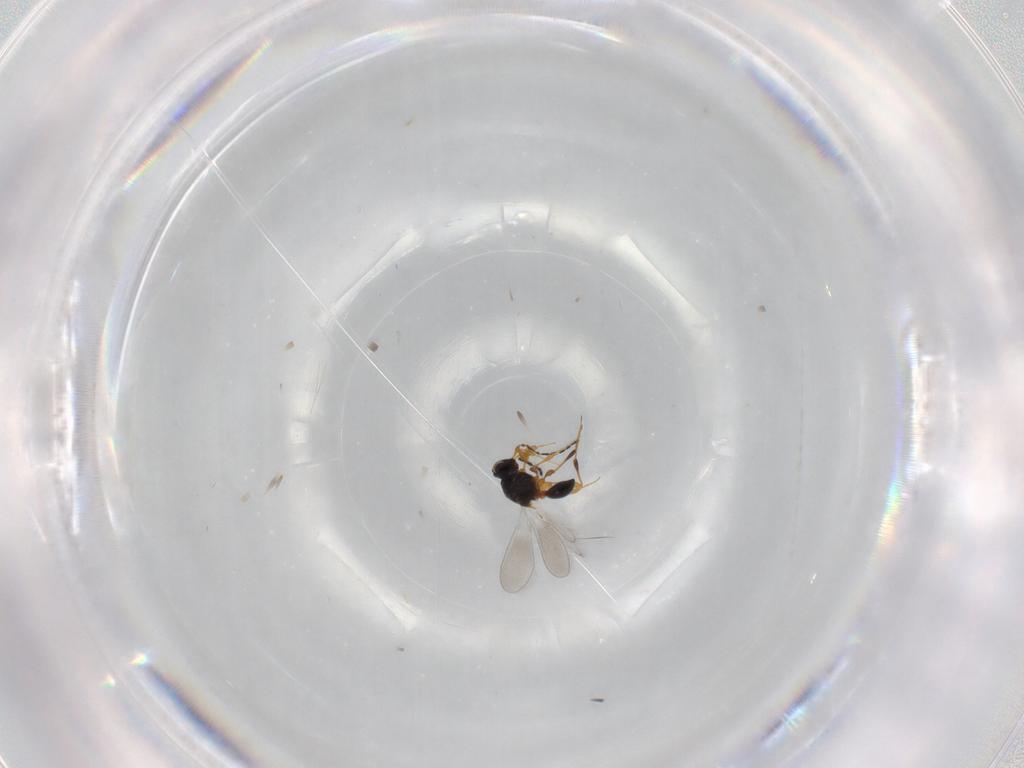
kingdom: Animalia
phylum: Arthropoda
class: Insecta
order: Hymenoptera
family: Platygastridae
